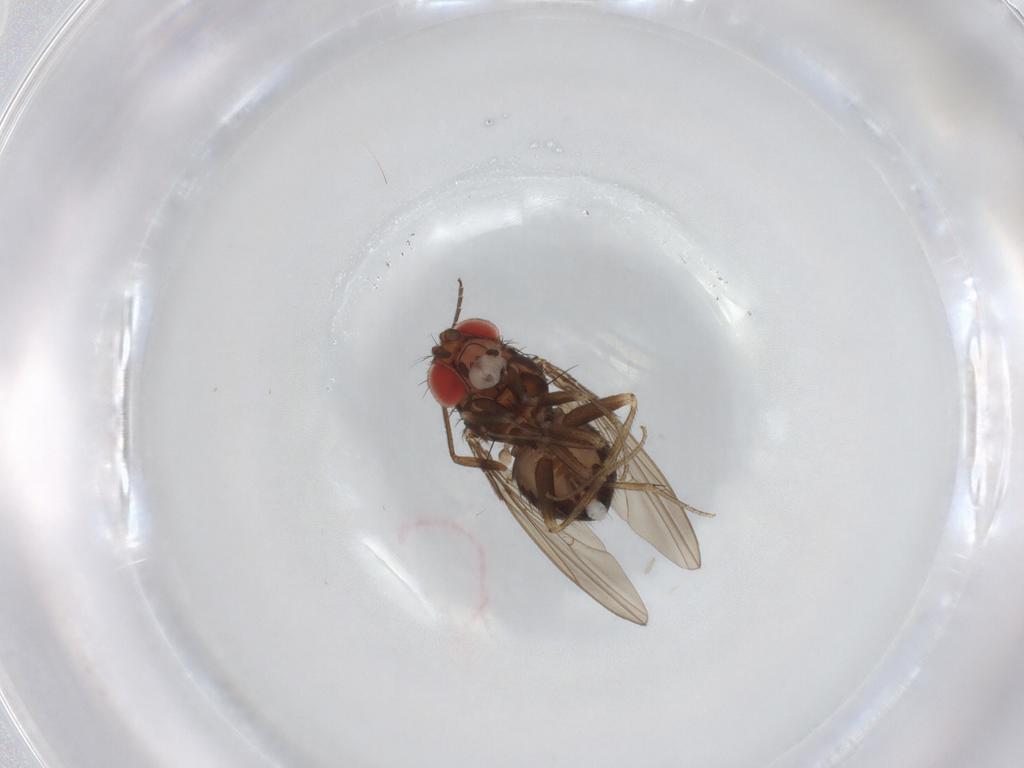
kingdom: Animalia
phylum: Arthropoda
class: Insecta
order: Diptera
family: Drosophilidae
